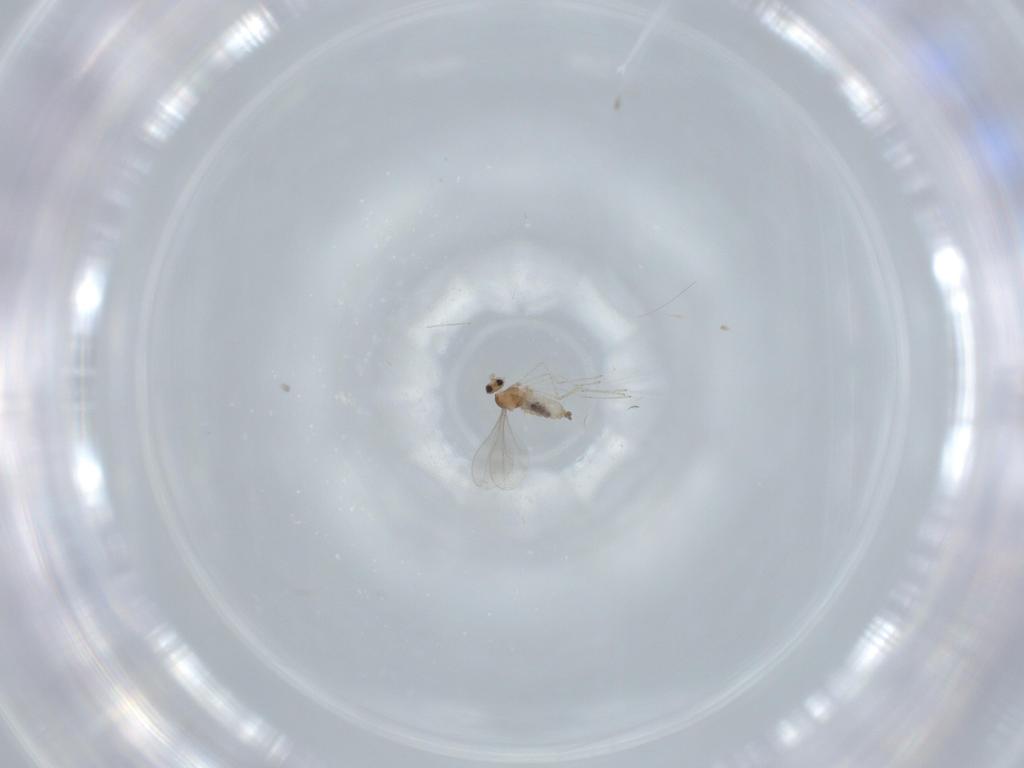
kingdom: Animalia
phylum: Arthropoda
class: Insecta
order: Diptera
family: Cecidomyiidae
